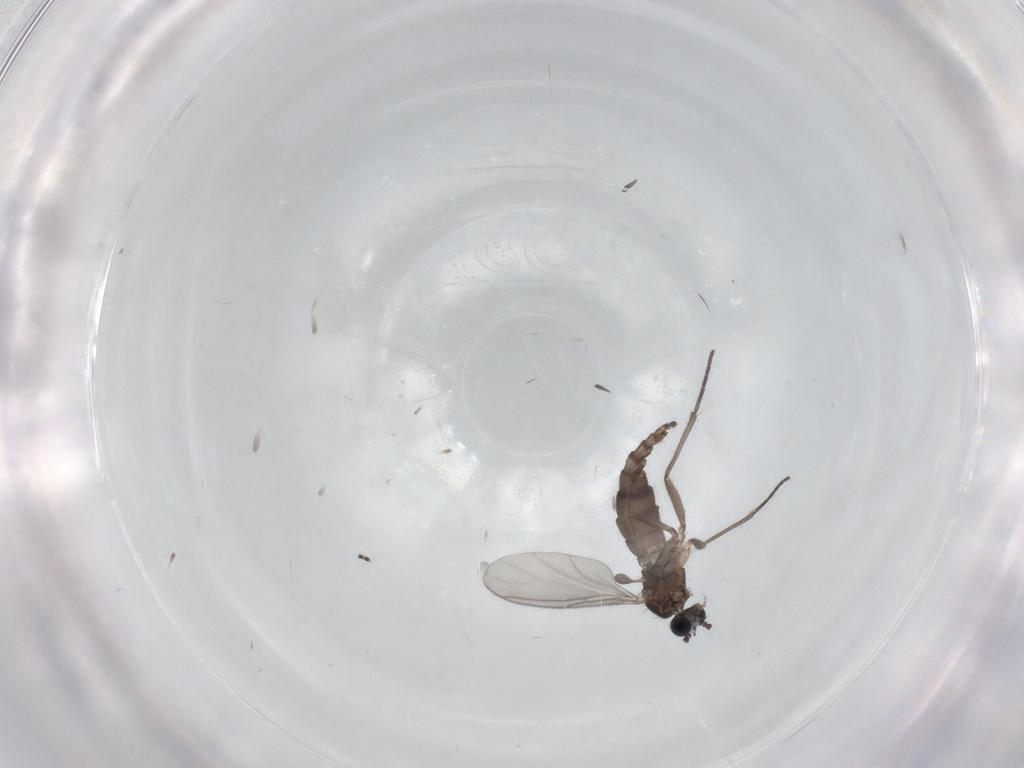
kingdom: Animalia
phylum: Arthropoda
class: Insecta
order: Diptera
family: Sciaridae
